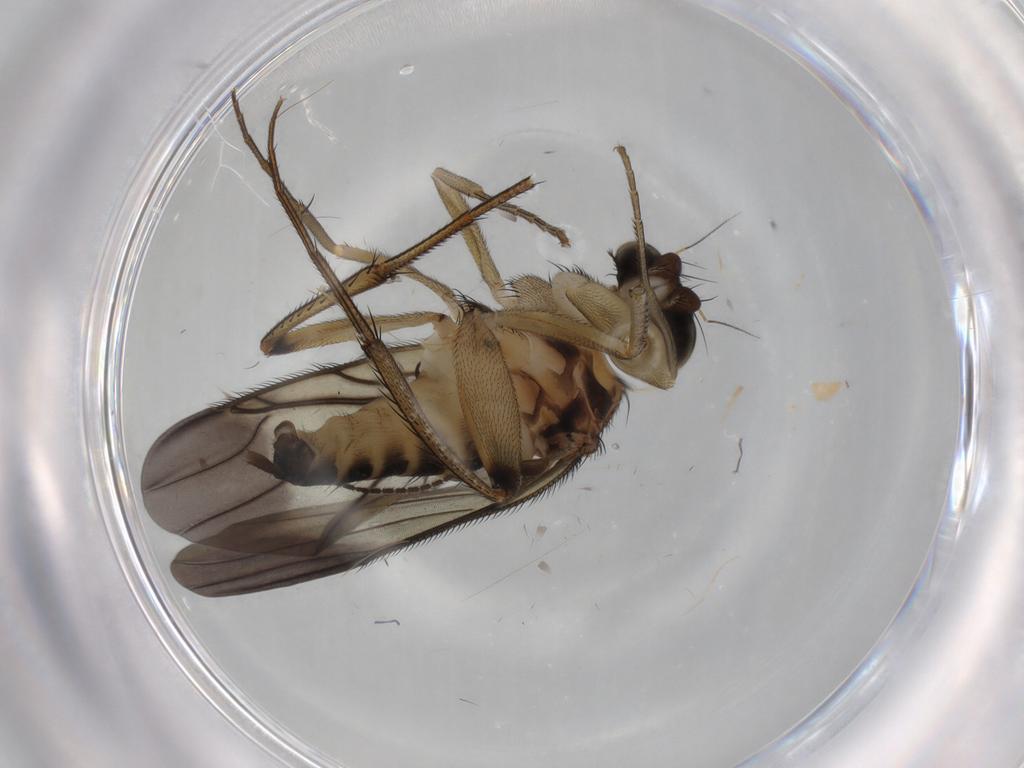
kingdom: Animalia
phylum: Arthropoda
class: Insecta
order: Diptera
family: Phoridae
